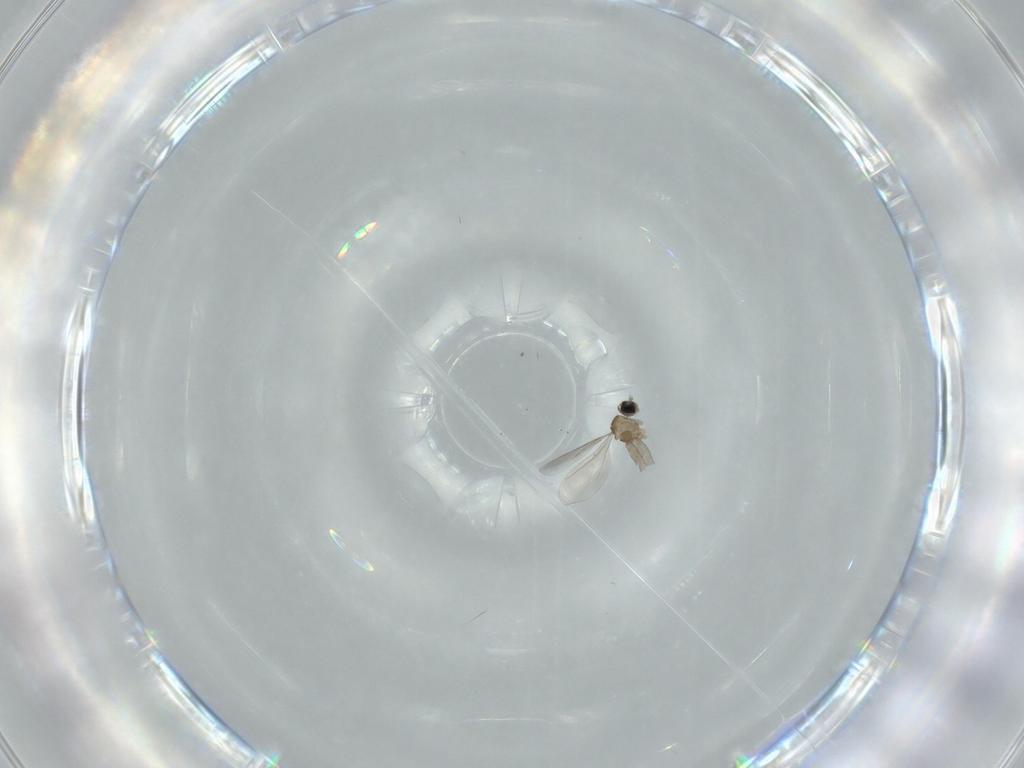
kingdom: Animalia
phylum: Arthropoda
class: Insecta
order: Diptera
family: Cecidomyiidae
